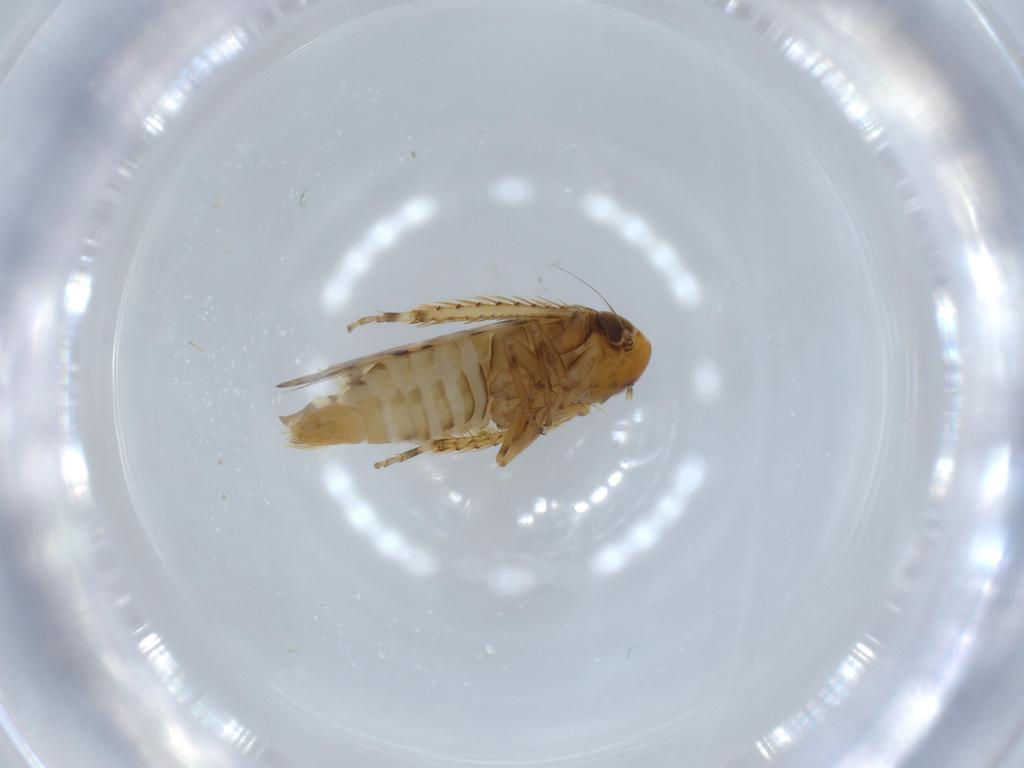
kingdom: Animalia
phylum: Arthropoda
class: Insecta
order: Hemiptera
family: Cicadellidae
